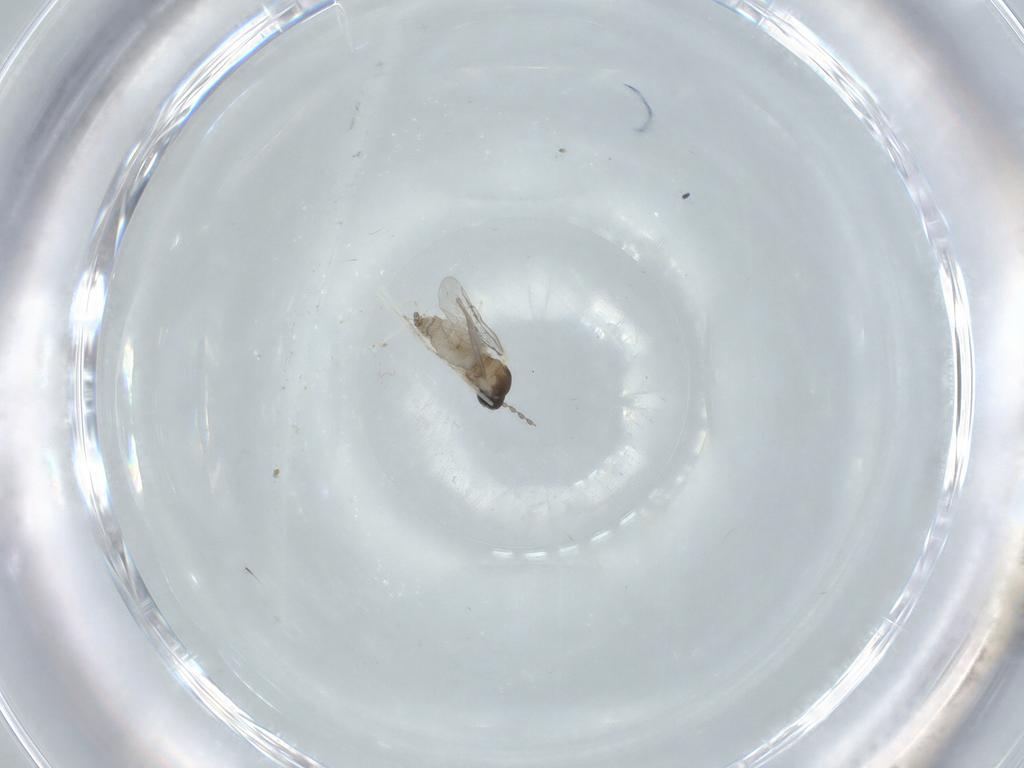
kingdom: Animalia
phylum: Arthropoda
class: Insecta
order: Diptera
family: Cecidomyiidae
